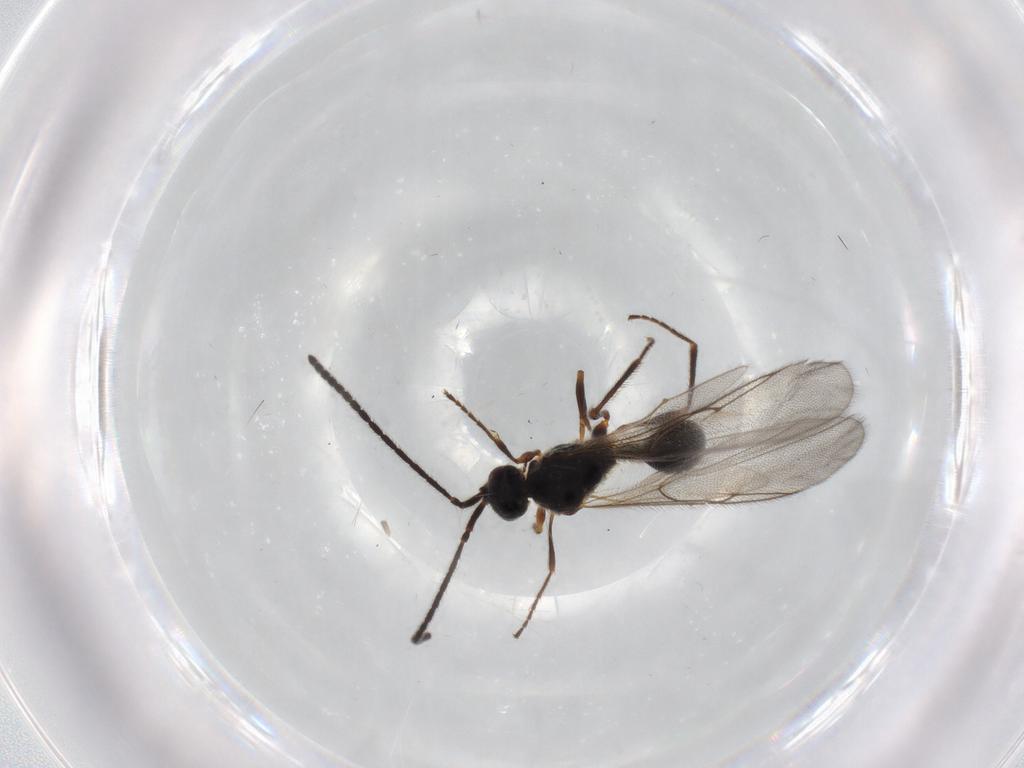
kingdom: Animalia
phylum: Arthropoda
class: Insecta
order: Hymenoptera
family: Diapriidae
